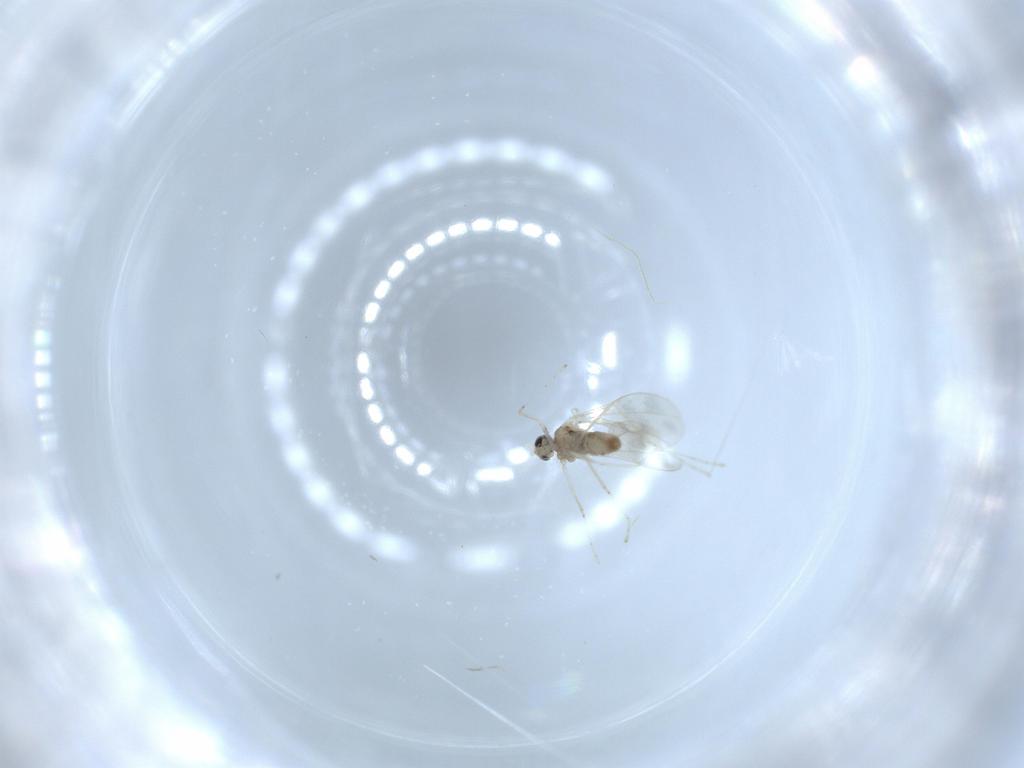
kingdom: Animalia
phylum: Arthropoda
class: Insecta
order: Diptera
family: Cecidomyiidae
